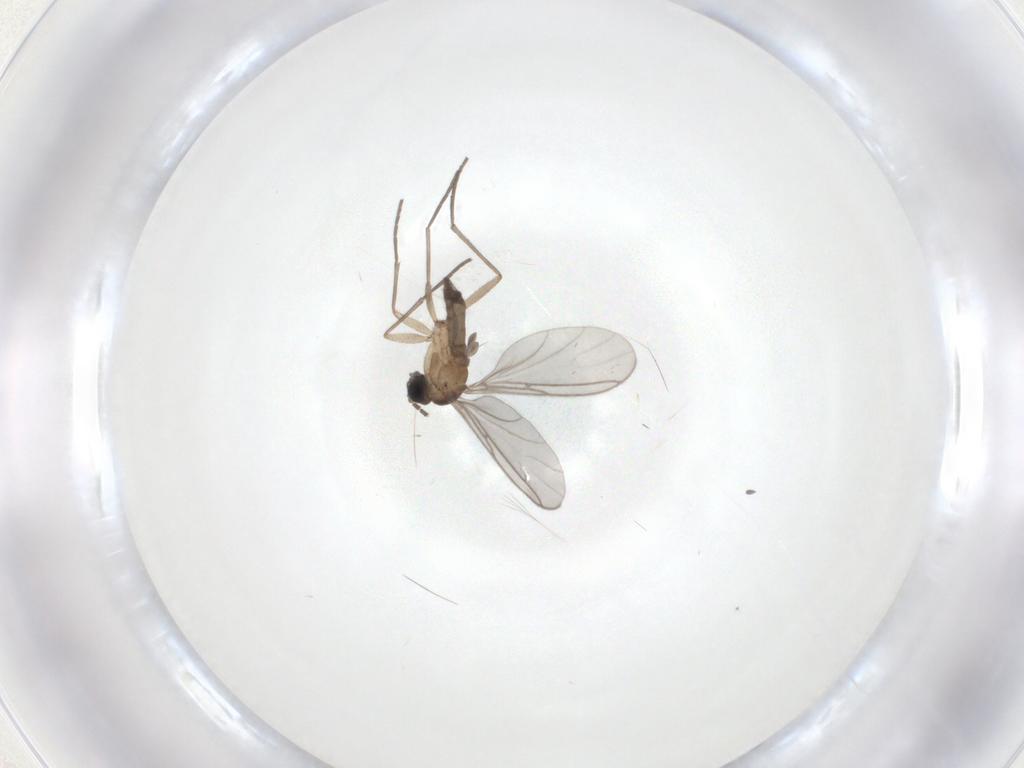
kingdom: Animalia
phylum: Arthropoda
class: Insecta
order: Diptera
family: Chironomidae
